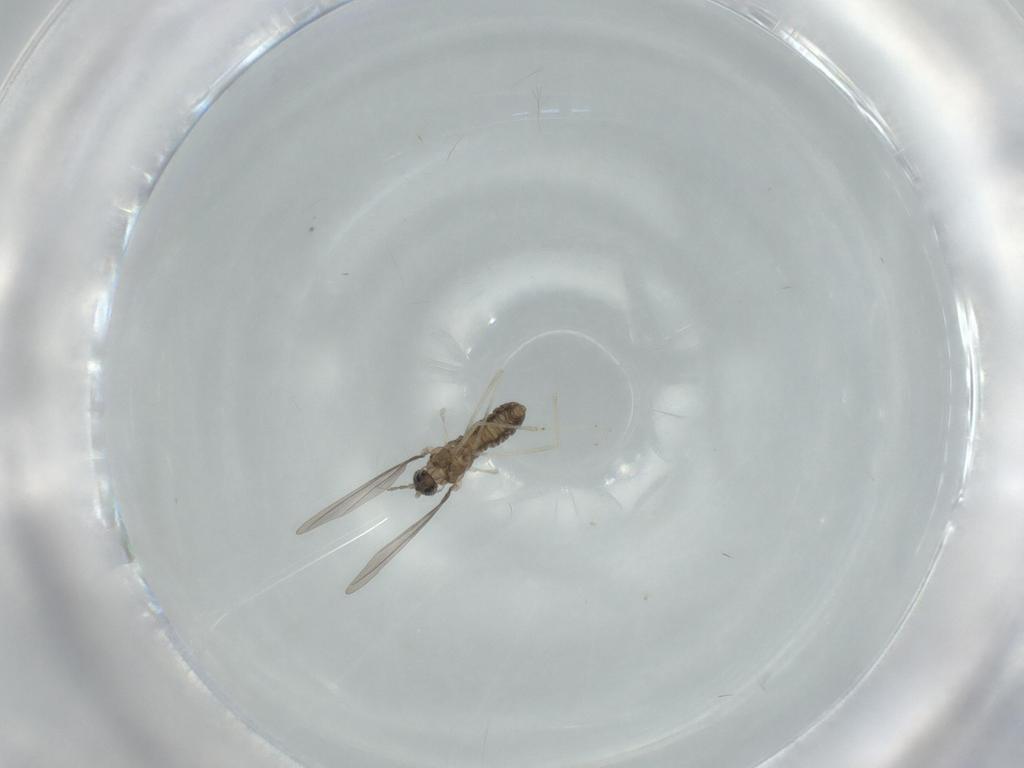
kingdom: Animalia
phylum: Arthropoda
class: Insecta
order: Diptera
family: Cecidomyiidae
